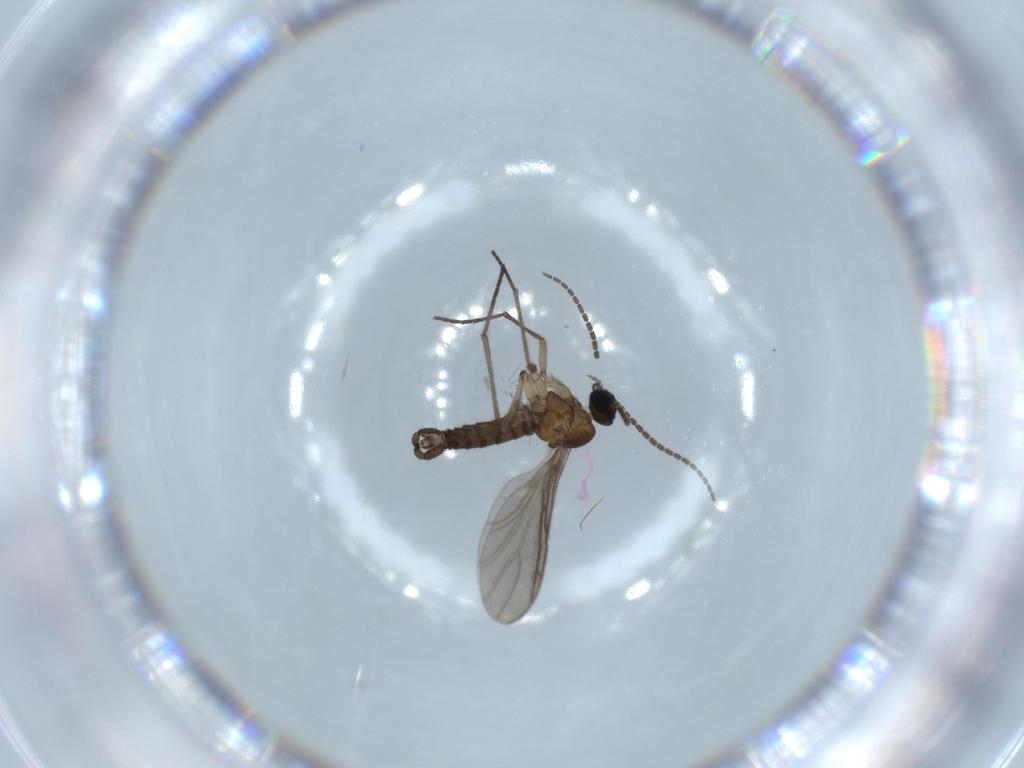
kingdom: Animalia
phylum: Arthropoda
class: Insecta
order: Diptera
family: Sciaridae
